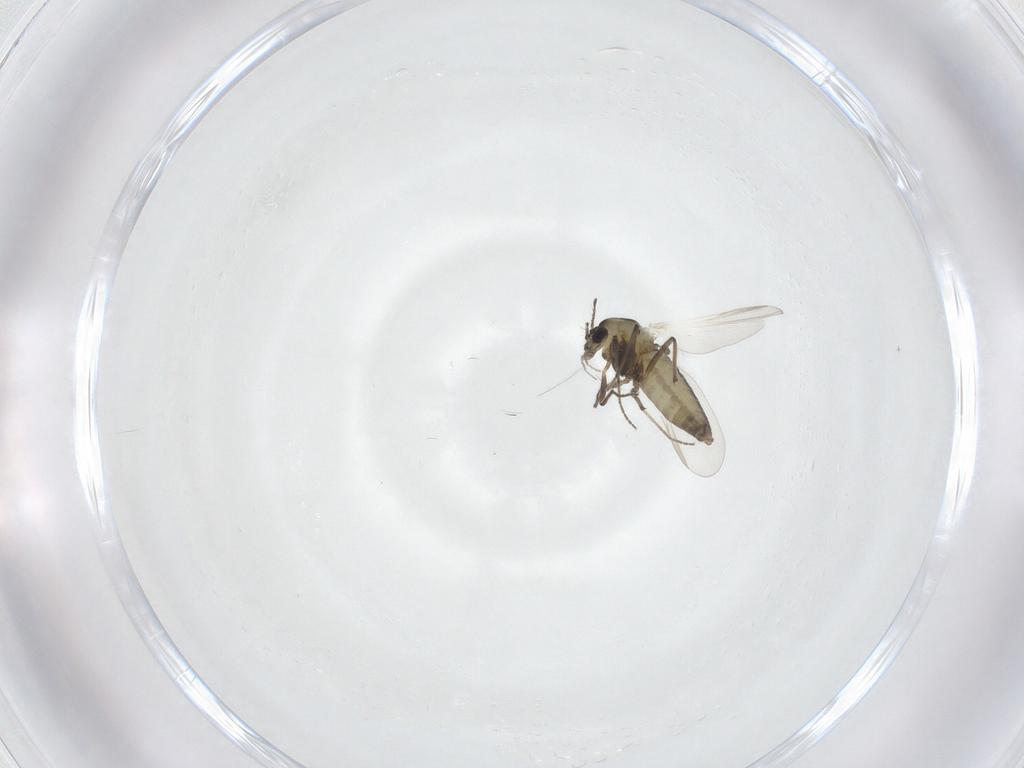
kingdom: Animalia
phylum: Arthropoda
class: Insecta
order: Diptera
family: Chironomidae
